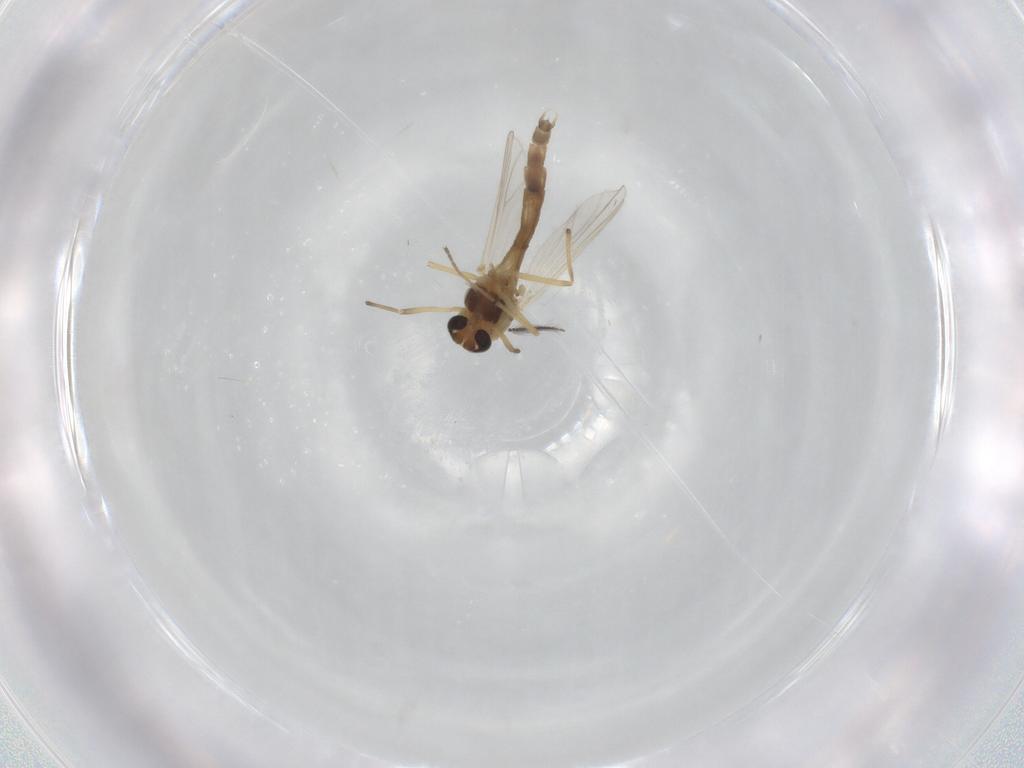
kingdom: Animalia
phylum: Arthropoda
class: Insecta
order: Diptera
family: Chironomidae
